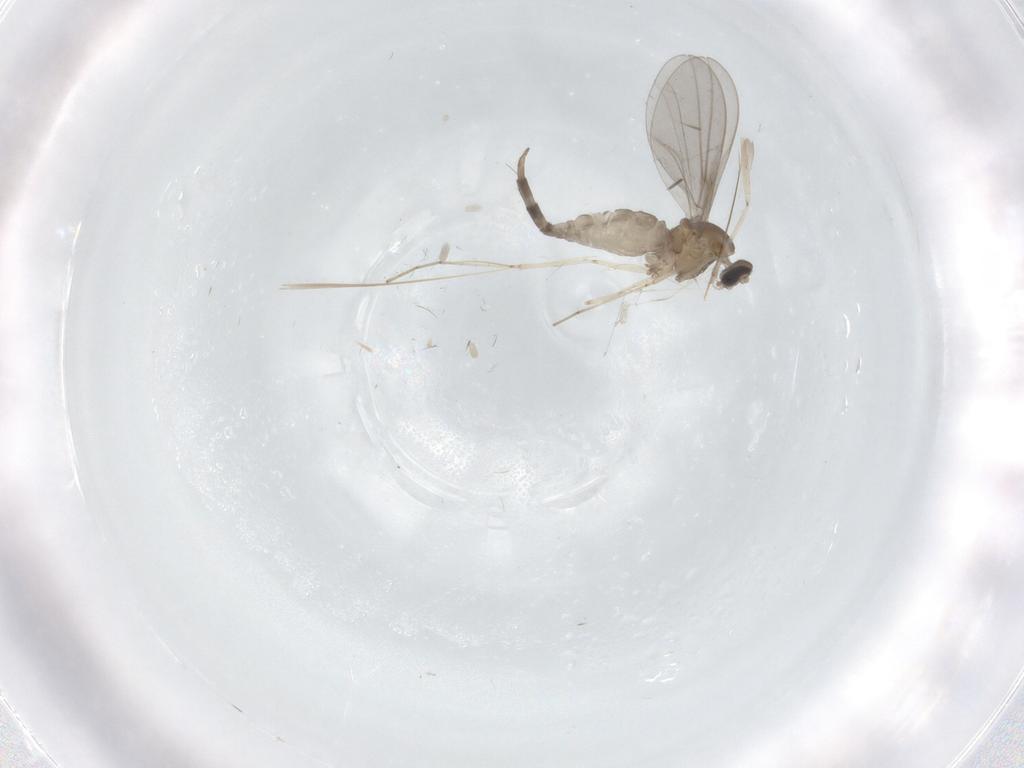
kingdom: Animalia
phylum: Arthropoda
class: Insecta
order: Diptera
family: Cecidomyiidae
